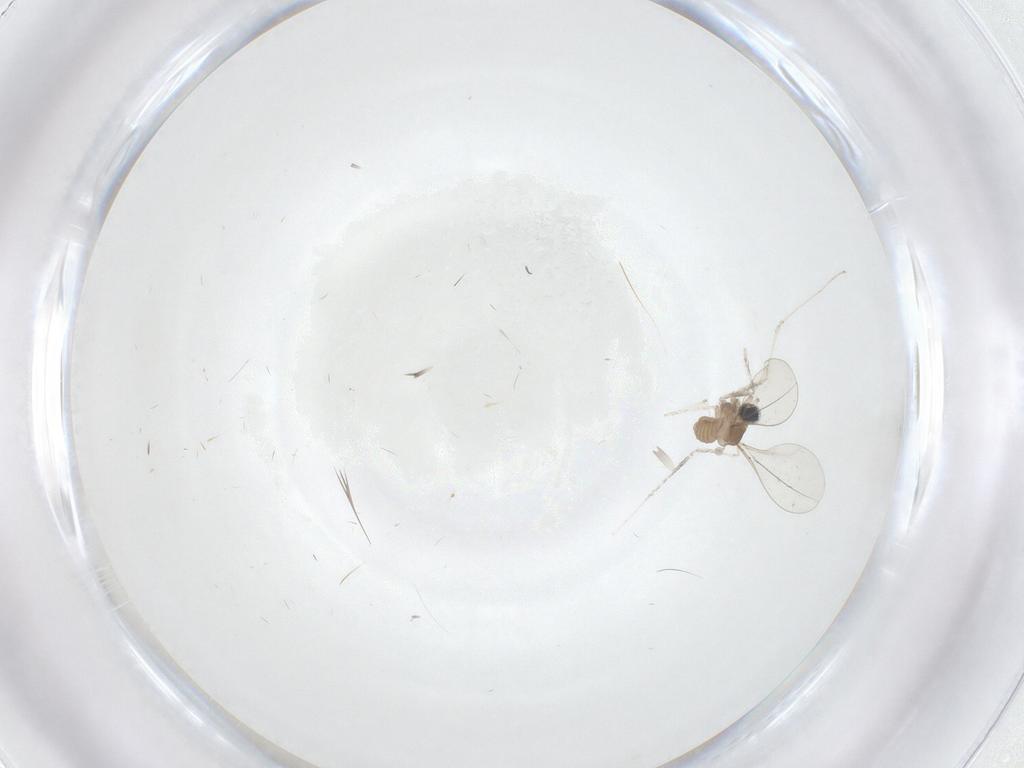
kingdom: Animalia
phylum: Arthropoda
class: Insecta
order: Diptera
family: Cecidomyiidae
